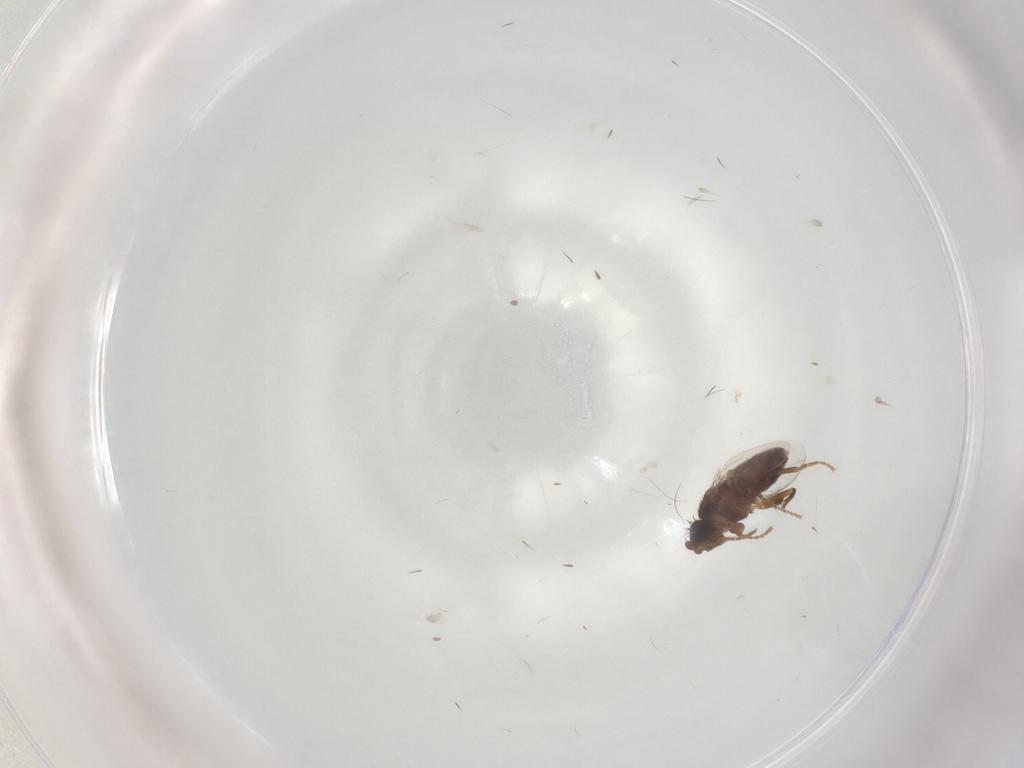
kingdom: Animalia
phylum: Arthropoda
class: Insecta
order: Diptera
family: Sphaeroceridae
